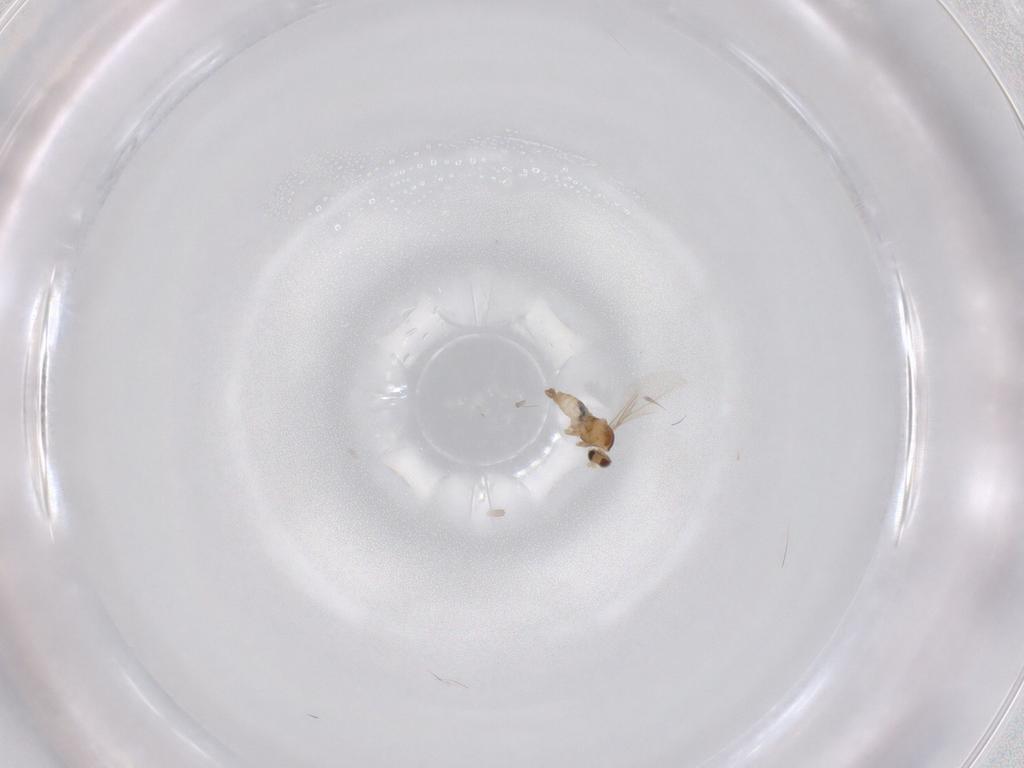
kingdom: Animalia
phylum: Arthropoda
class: Insecta
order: Diptera
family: Cecidomyiidae
